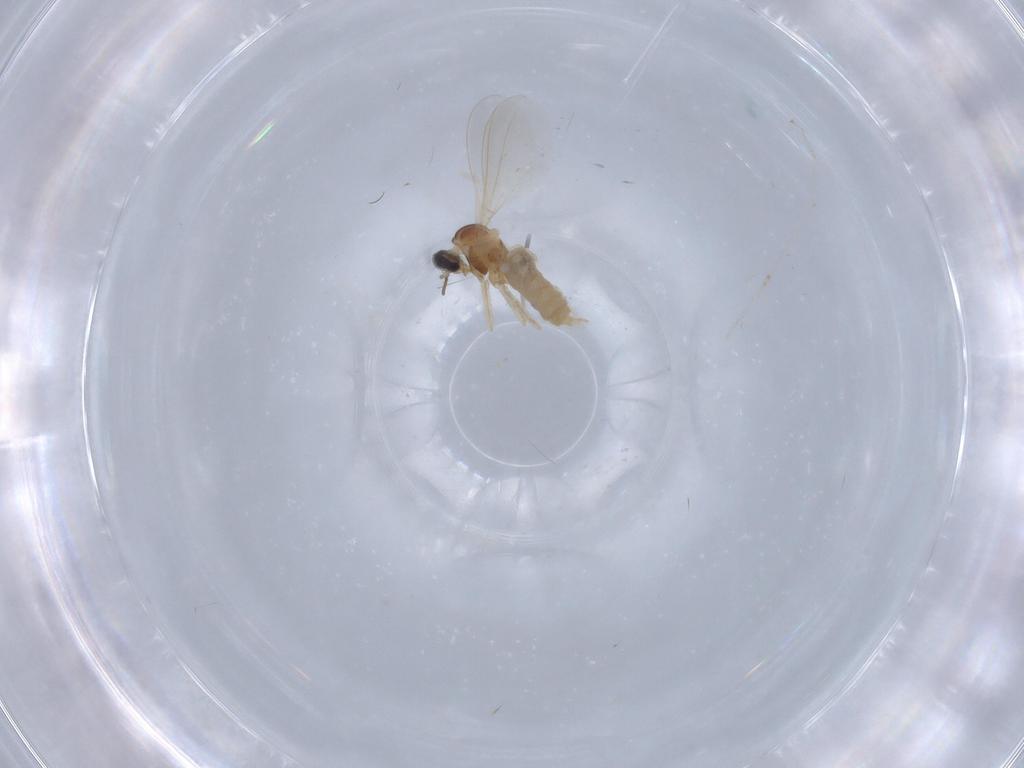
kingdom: Animalia
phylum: Arthropoda
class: Insecta
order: Diptera
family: Cecidomyiidae
